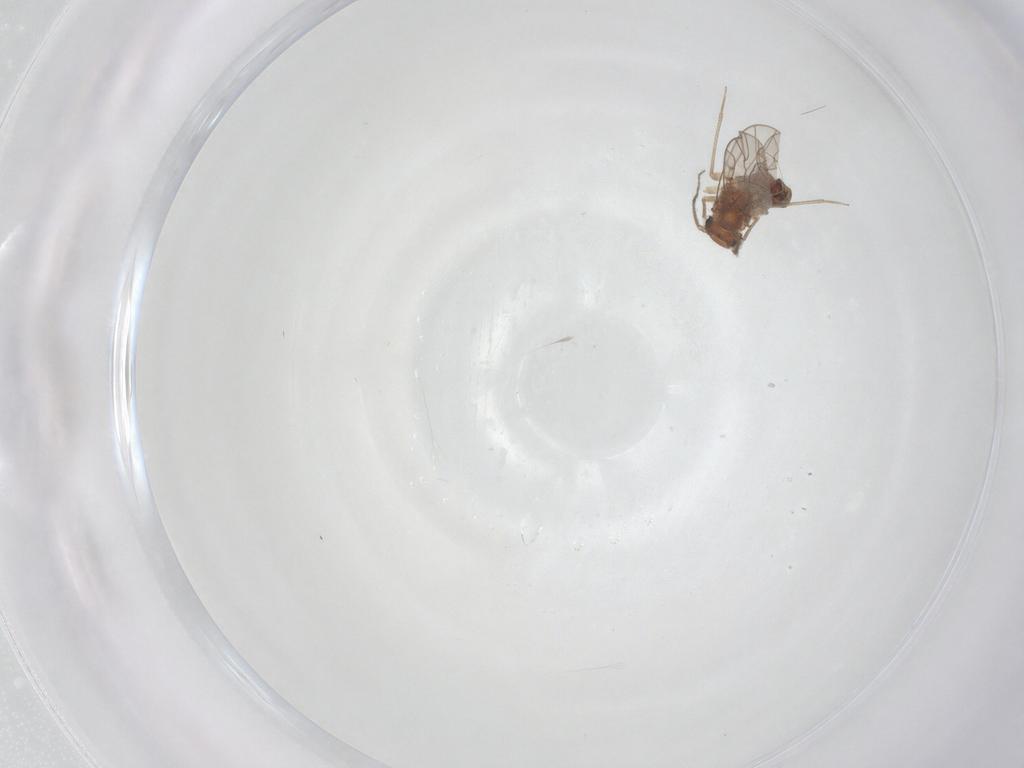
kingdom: Animalia
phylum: Arthropoda
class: Insecta
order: Psocodea
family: Ectopsocidae
